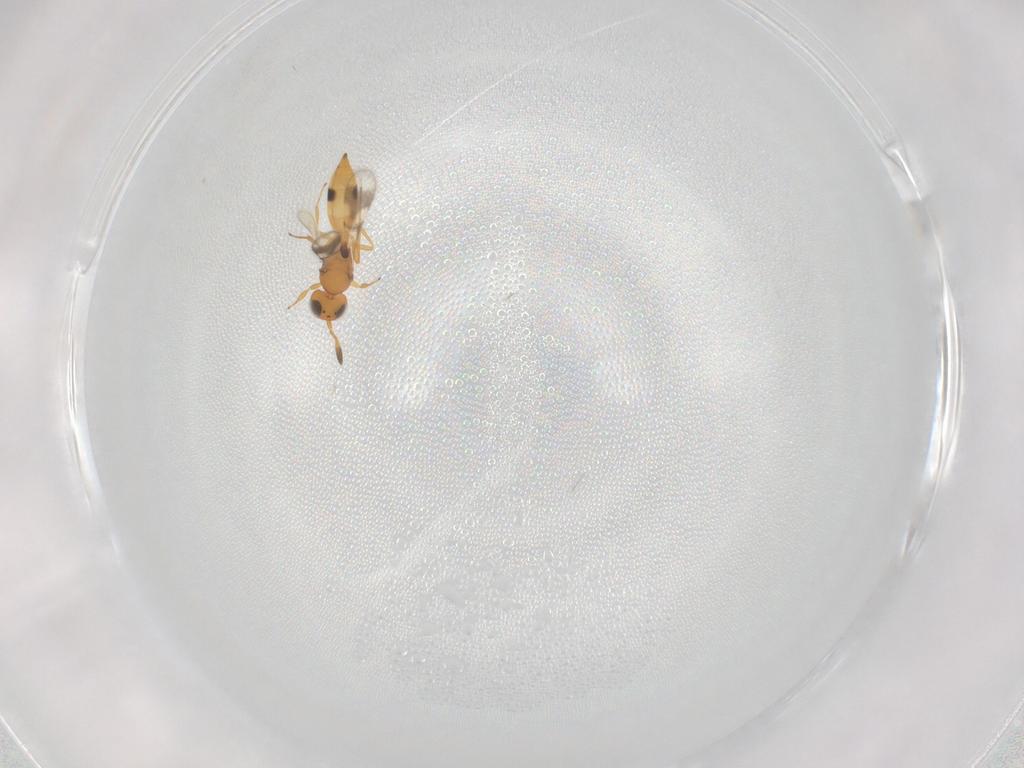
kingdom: Animalia
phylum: Arthropoda
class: Insecta
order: Hymenoptera
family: Scelionidae
